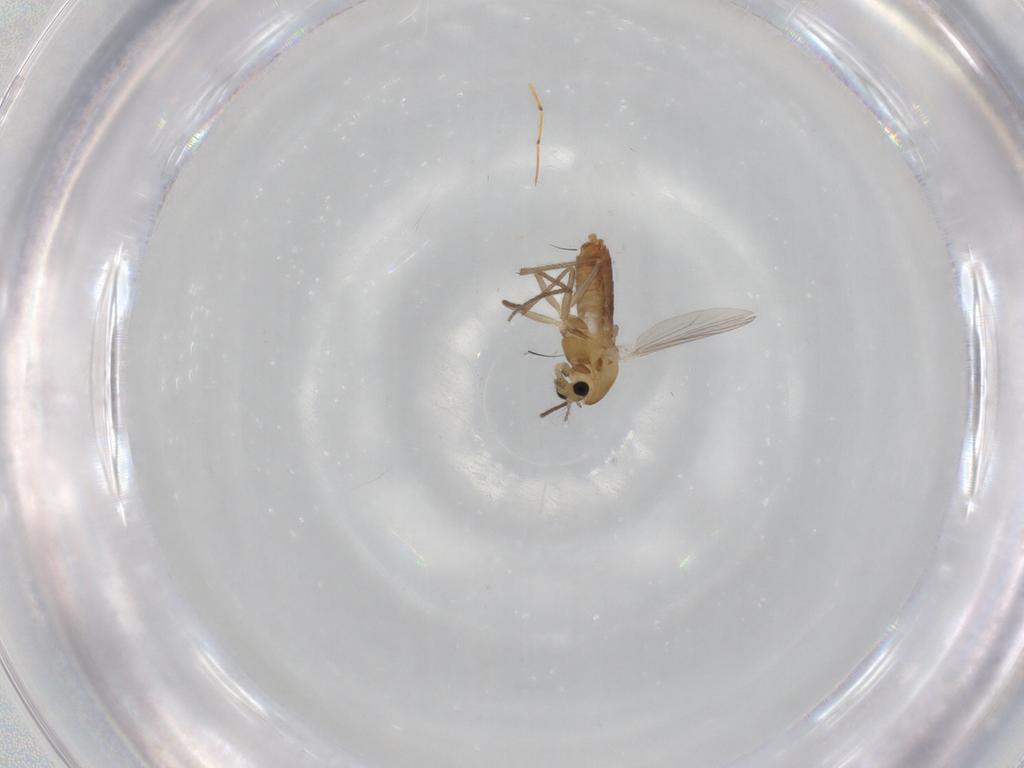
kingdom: Animalia
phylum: Arthropoda
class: Insecta
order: Diptera
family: Chironomidae
